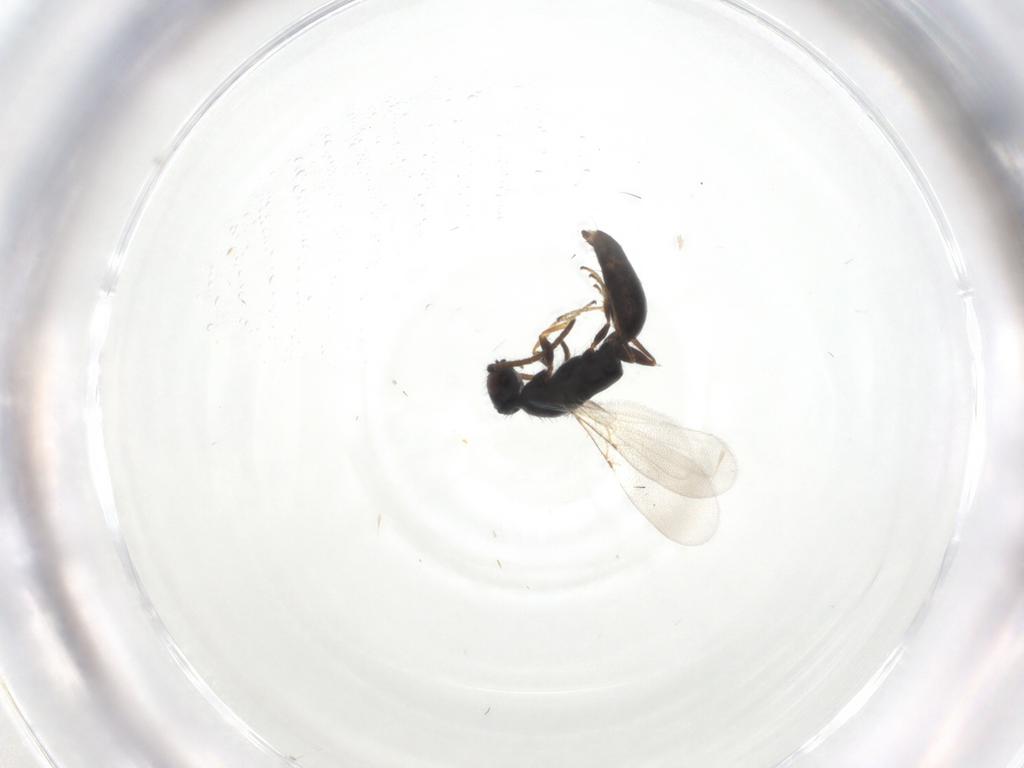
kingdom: Animalia
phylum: Arthropoda
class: Insecta
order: Hymenoptera
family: Bethylidae
